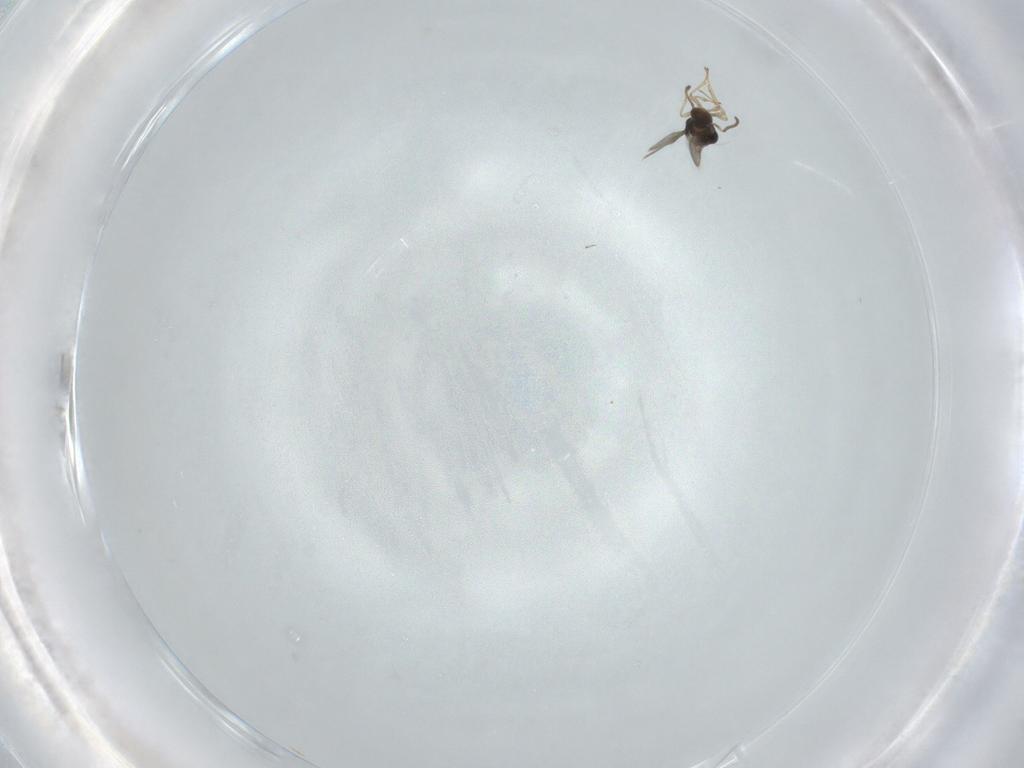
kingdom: Animalia
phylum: Arthropoda
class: Insecta
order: Hymenoptera
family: Scelionidae
